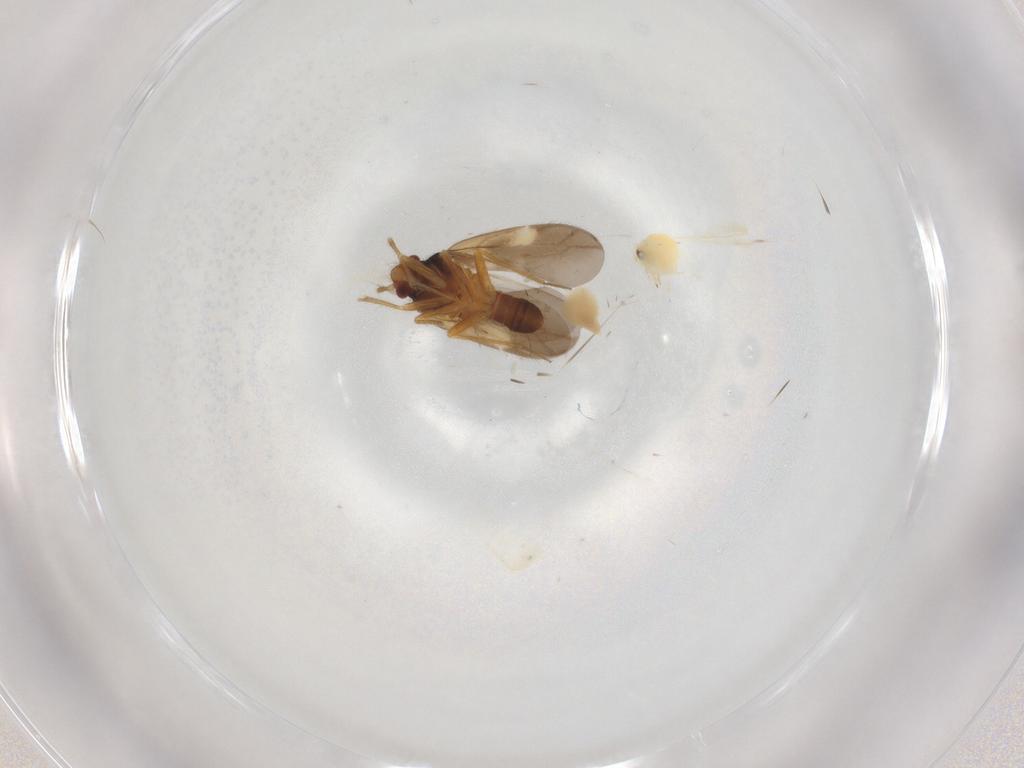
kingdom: Animalia
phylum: Arthropoda
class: Insecta
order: Hemiptera
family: Aleyrodidae
